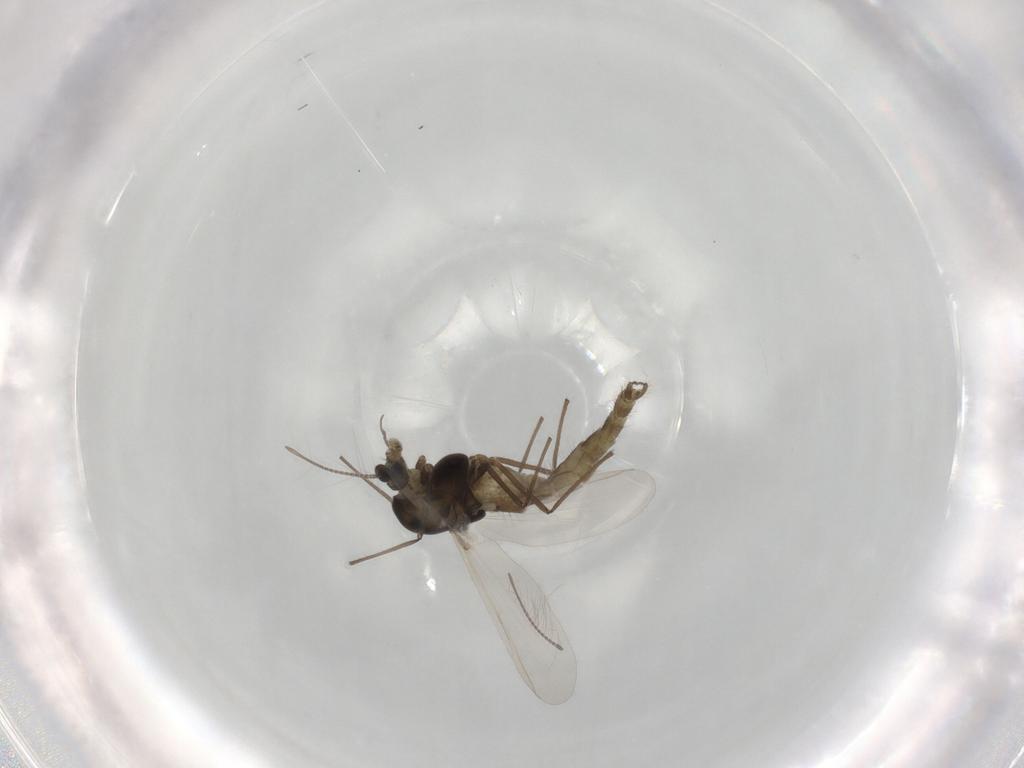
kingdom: Animalia
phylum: Arthropoda
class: Insecta
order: Diptera
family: Chironomidae
